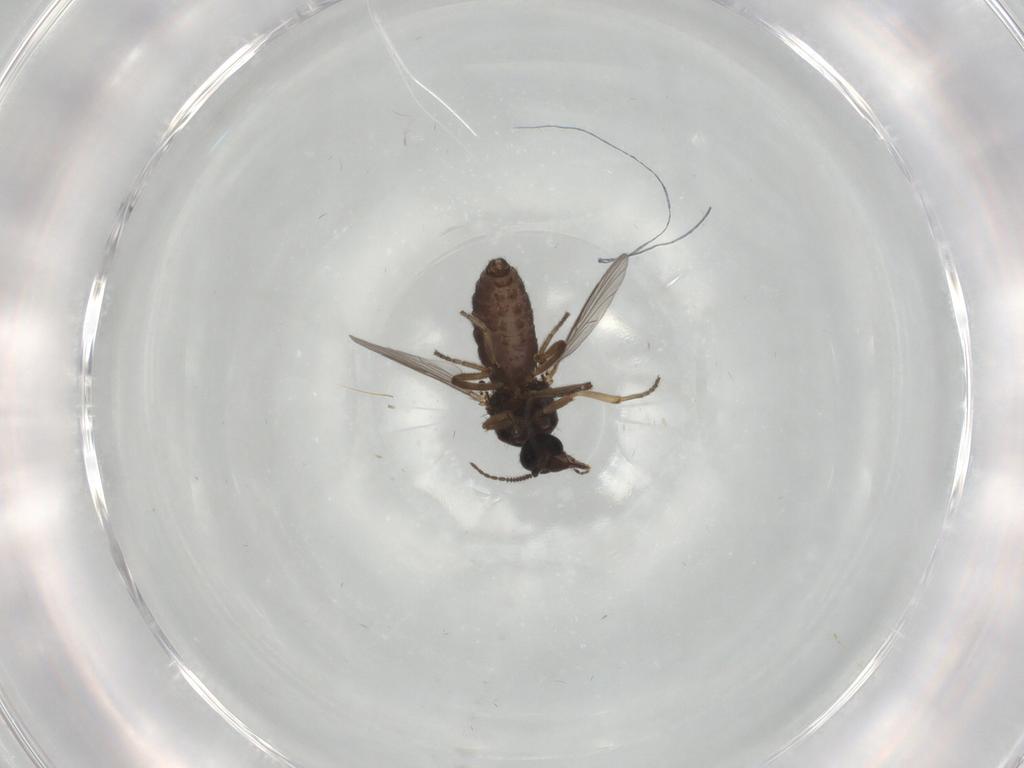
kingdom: Animalia
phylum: Arthropoda
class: Insecta
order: Diptera
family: Ceratopogonidae
